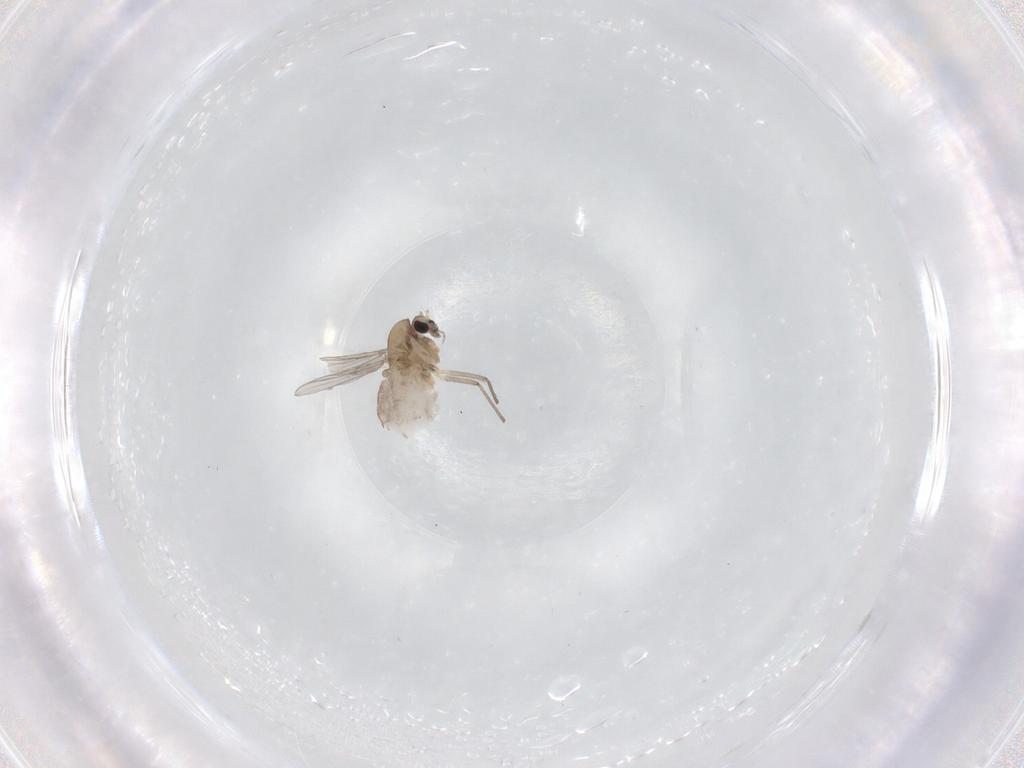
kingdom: Animalia
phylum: Arthropoda
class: Insecta
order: Diptera
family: Chironomidae
